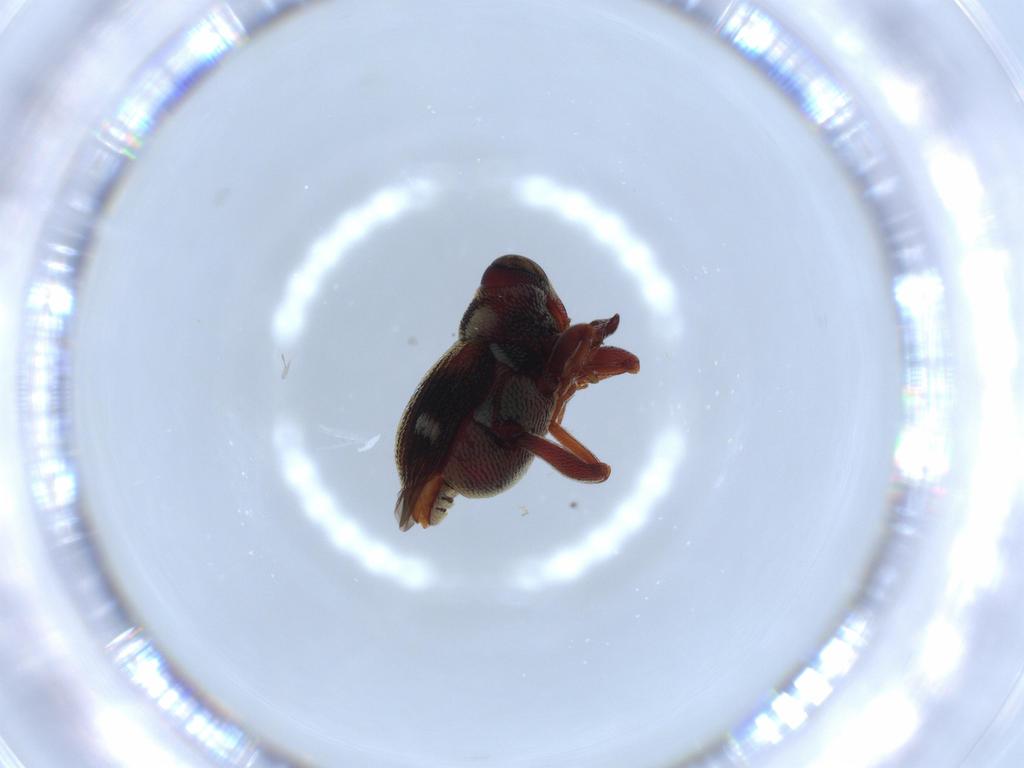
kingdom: Animalia
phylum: Arthropoda
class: Insecta
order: Coleoptera
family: Curculionidae
